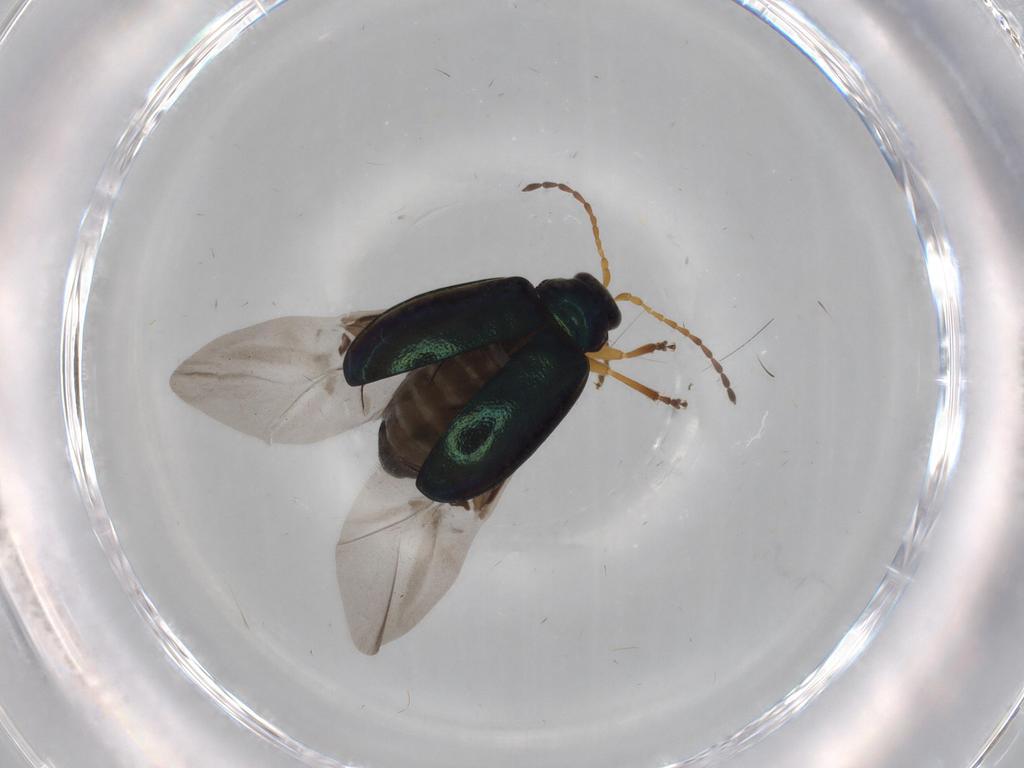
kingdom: Animalia
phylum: Arthropoda
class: Insecta
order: Coleoptera
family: Chrysomelidae
